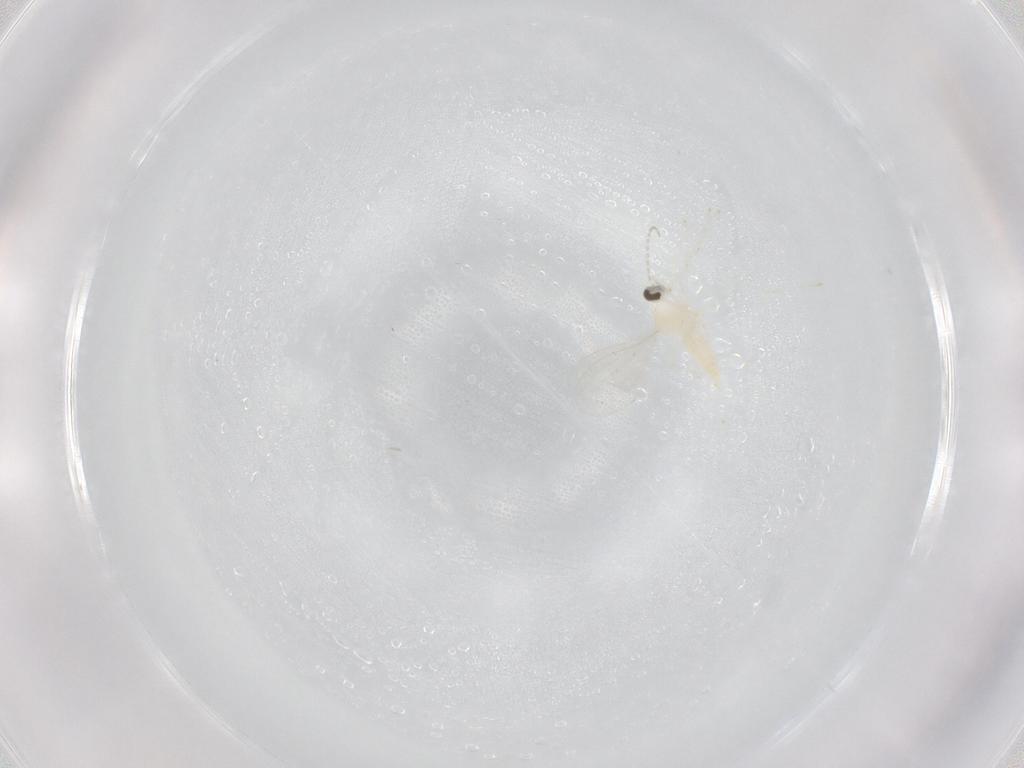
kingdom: Animalia
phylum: Arthropoda
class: Insecta
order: Diptera
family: Cecidomyiidae
